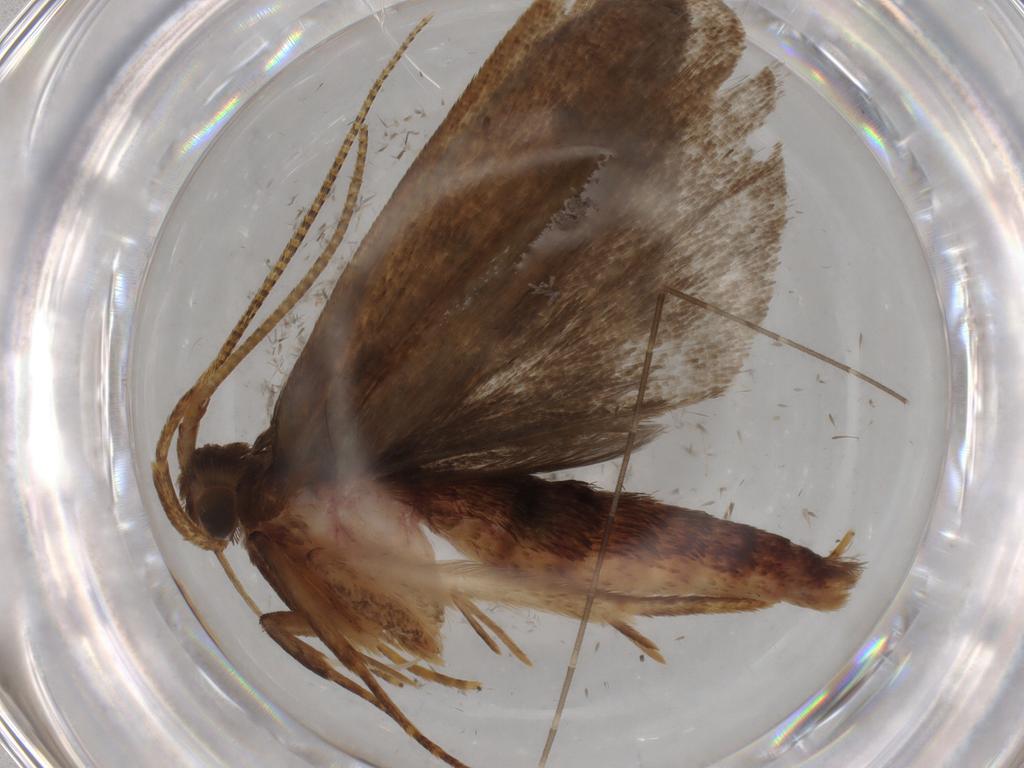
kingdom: Animalia
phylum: Arthropoda
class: Insecta
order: Lepidoptera
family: Autostichidae
